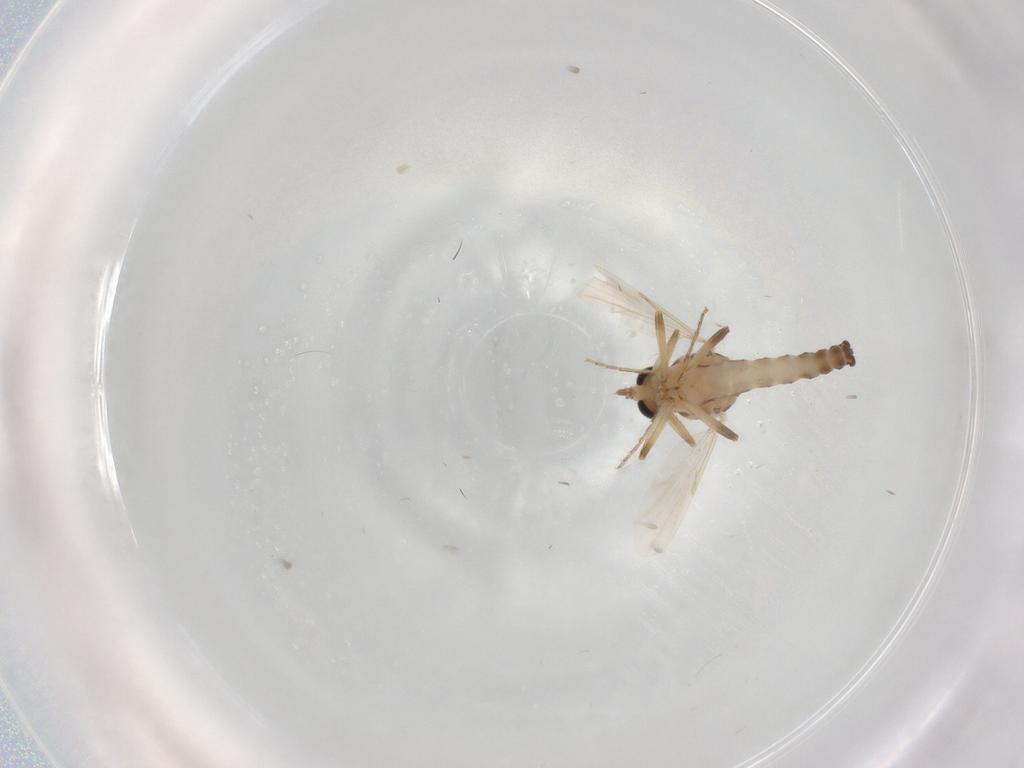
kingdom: Animalia
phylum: Arthropoda
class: Insecta
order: Diptera
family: Ceratopogonidae
